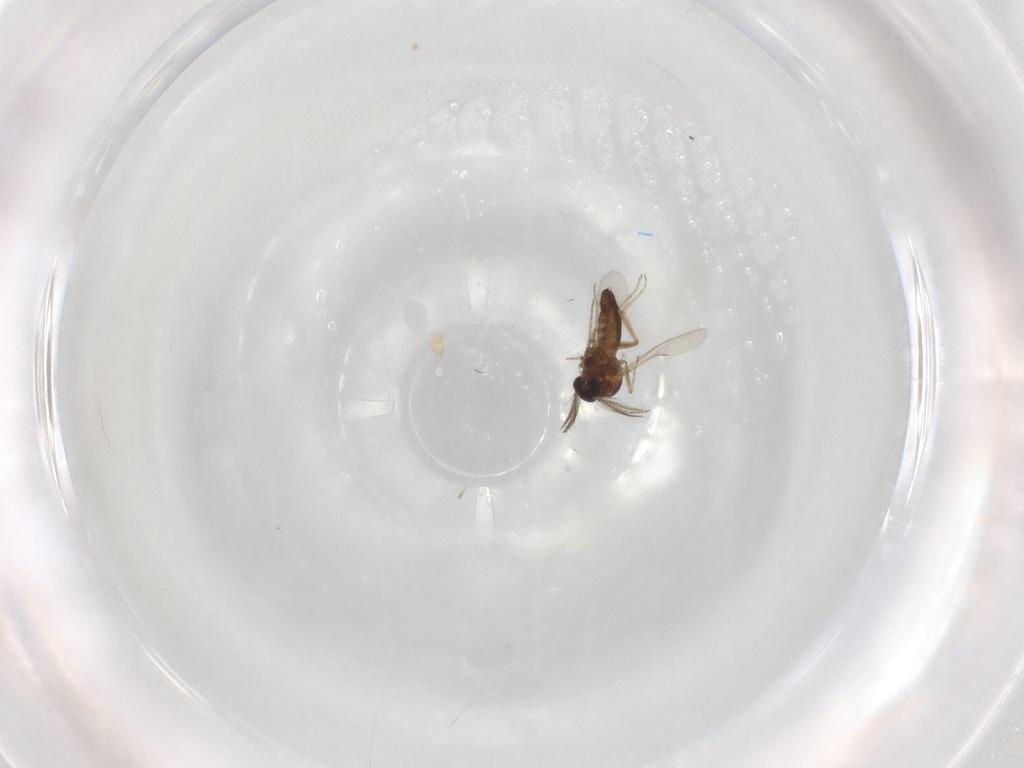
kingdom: Animalia
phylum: Arthropoda
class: Insecta
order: Diptera
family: Ceratopogonidae
